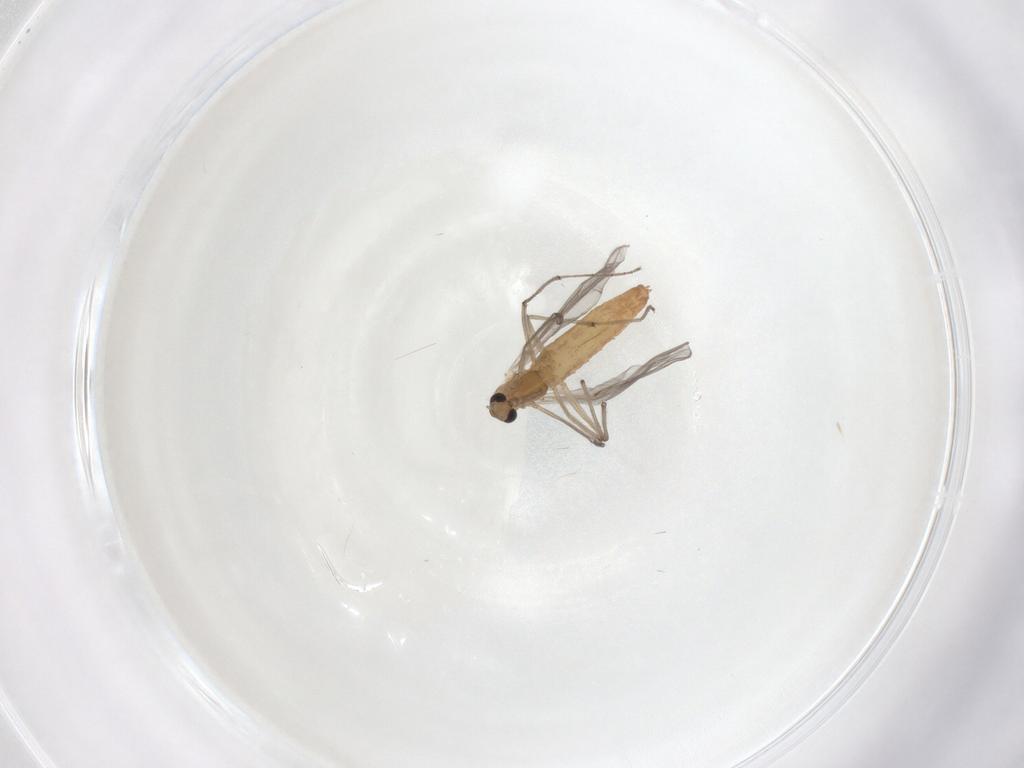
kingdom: Animalia
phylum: Arthropoda
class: Insecta
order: Diptera
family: Chironomidae
